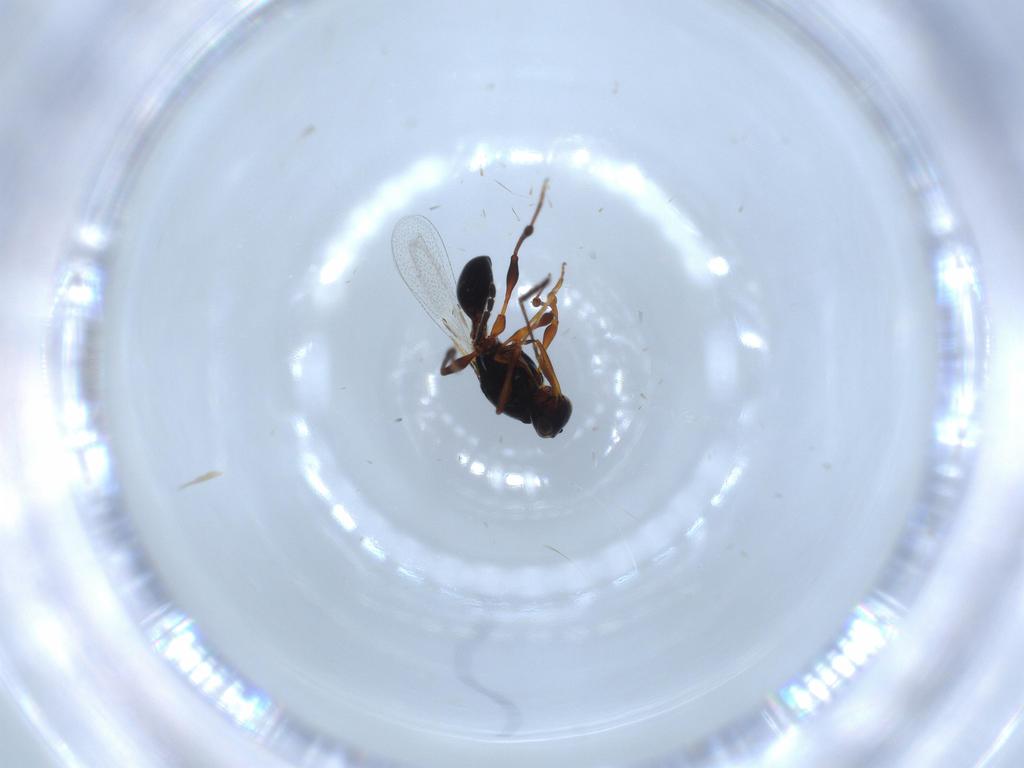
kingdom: Animalia
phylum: Arthropoda
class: Insecta
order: Hymenoptera
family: Platygastridae
